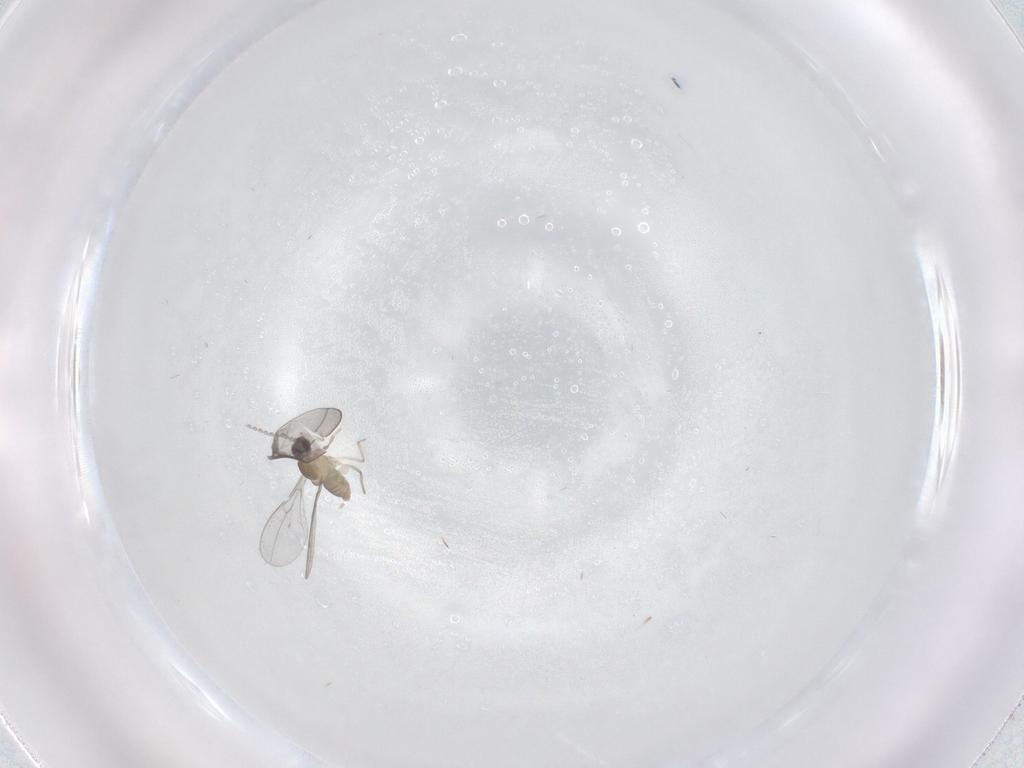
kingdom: Animalia
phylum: Arthropoda
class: Insecta
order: Diptera
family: Cecidomyiidae
